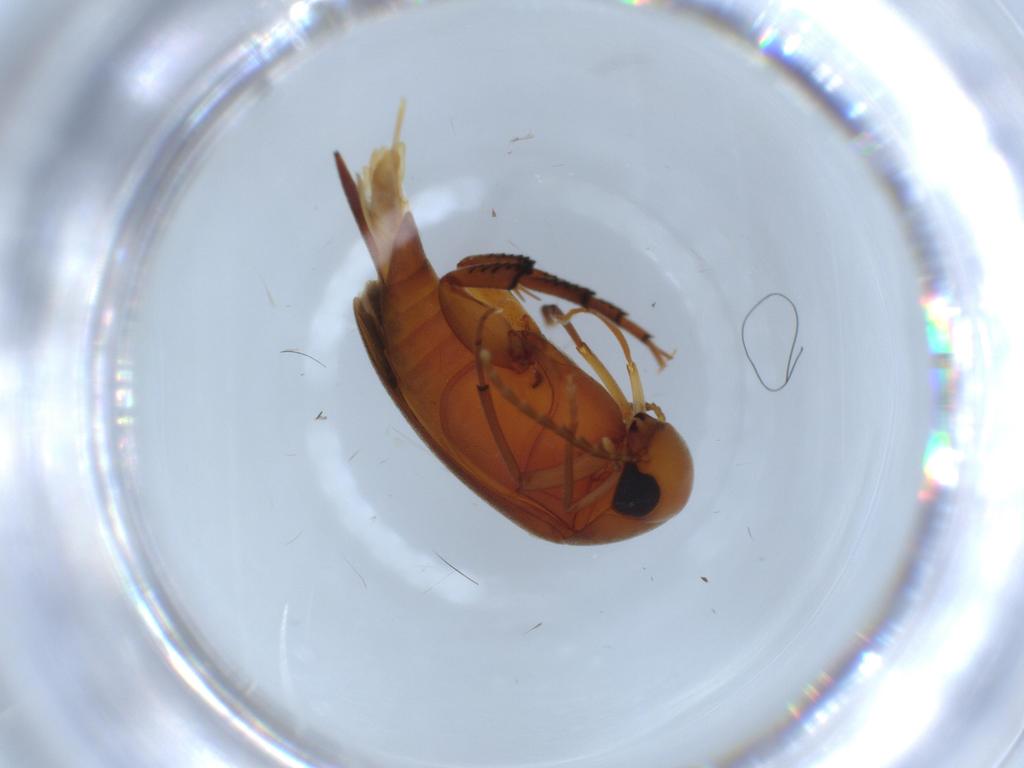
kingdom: Animalia
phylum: Arthropoda
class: Insecta
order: Coleoptera
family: Mordellidae
